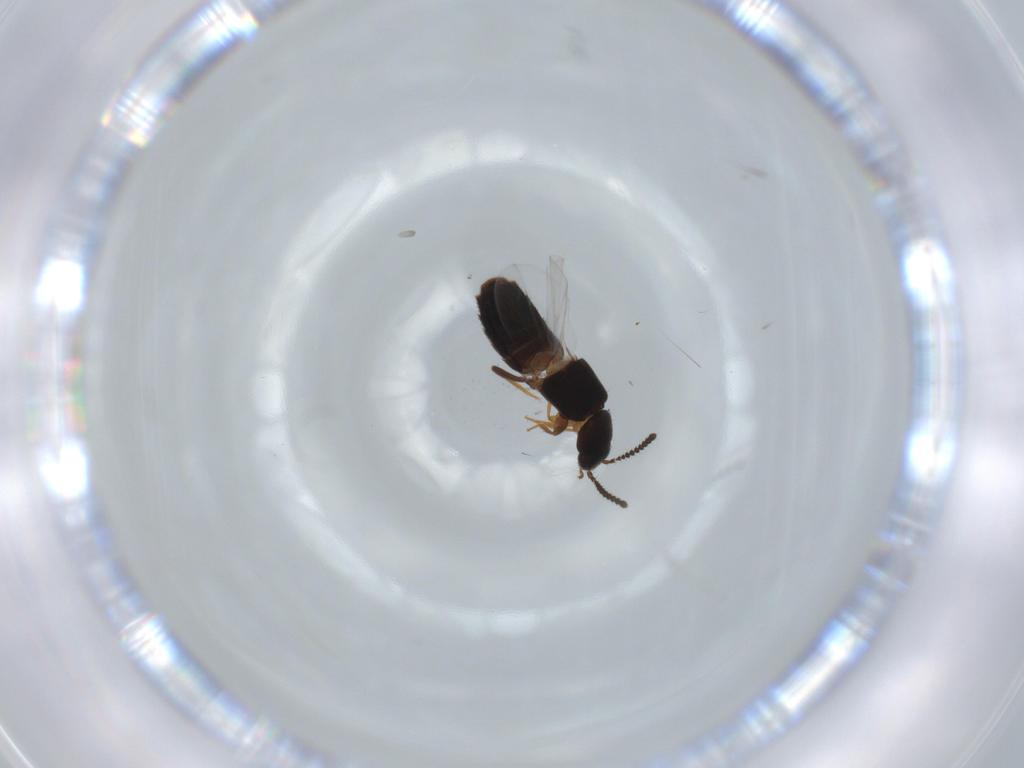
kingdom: Animalia
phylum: Arthropoda
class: Insecta
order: Coleoptera
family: Staphylinidae
